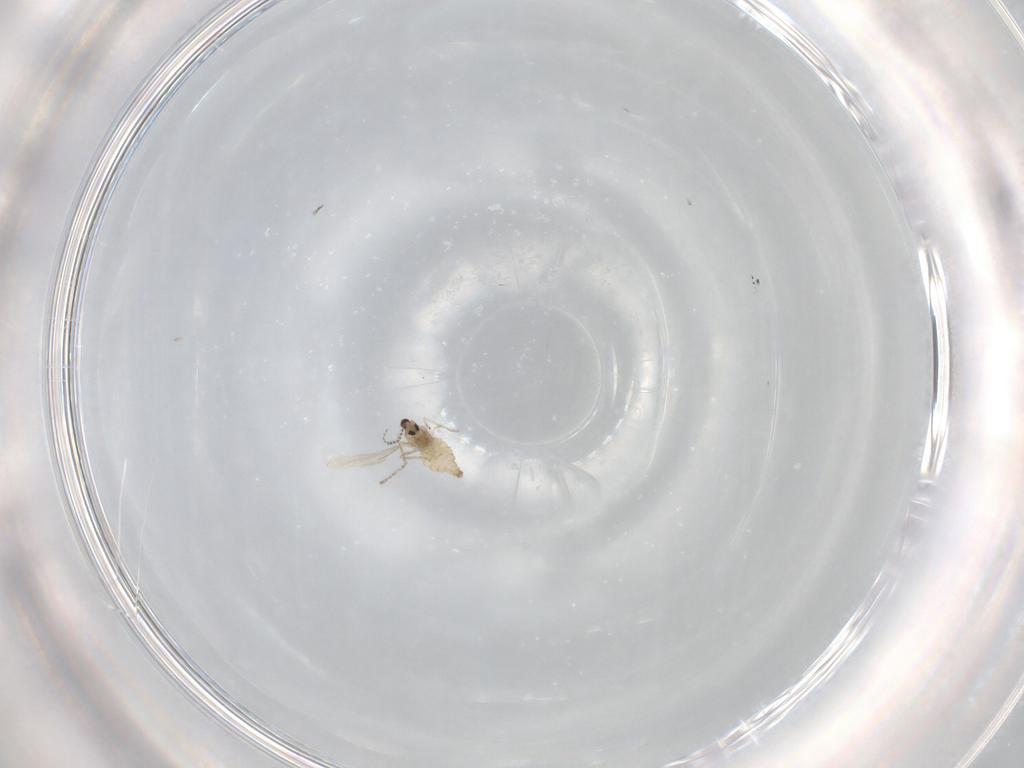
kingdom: Animalia
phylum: Arthropoda
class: Insecta
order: Diptera
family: Cecidomyiidae
